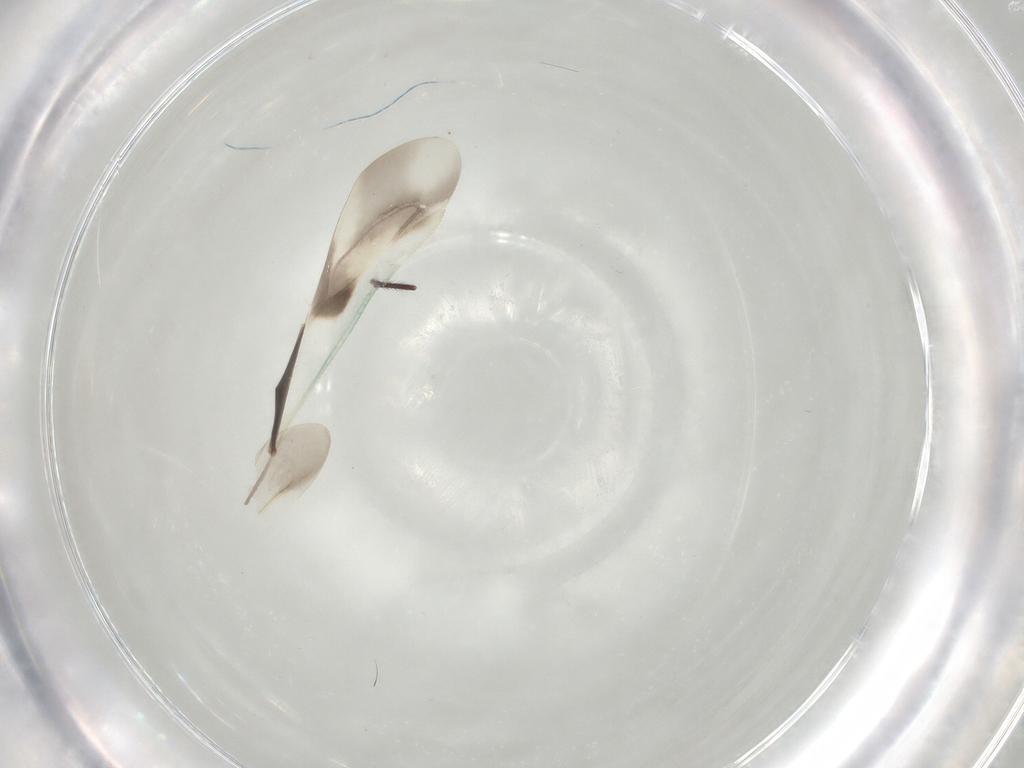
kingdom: Animalia
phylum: Arthropoda
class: Insecta
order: Hemiptera
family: Miridae
